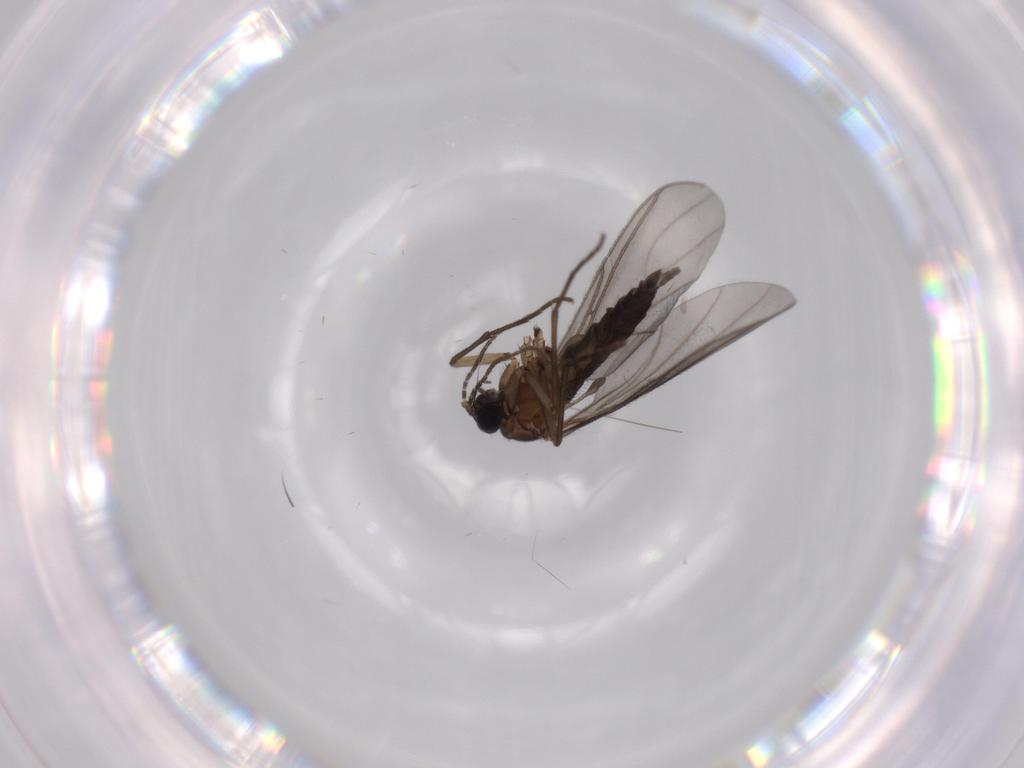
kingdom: Animalia
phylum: Arthropoda
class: Insecta
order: Diptera
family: Sciaridae
